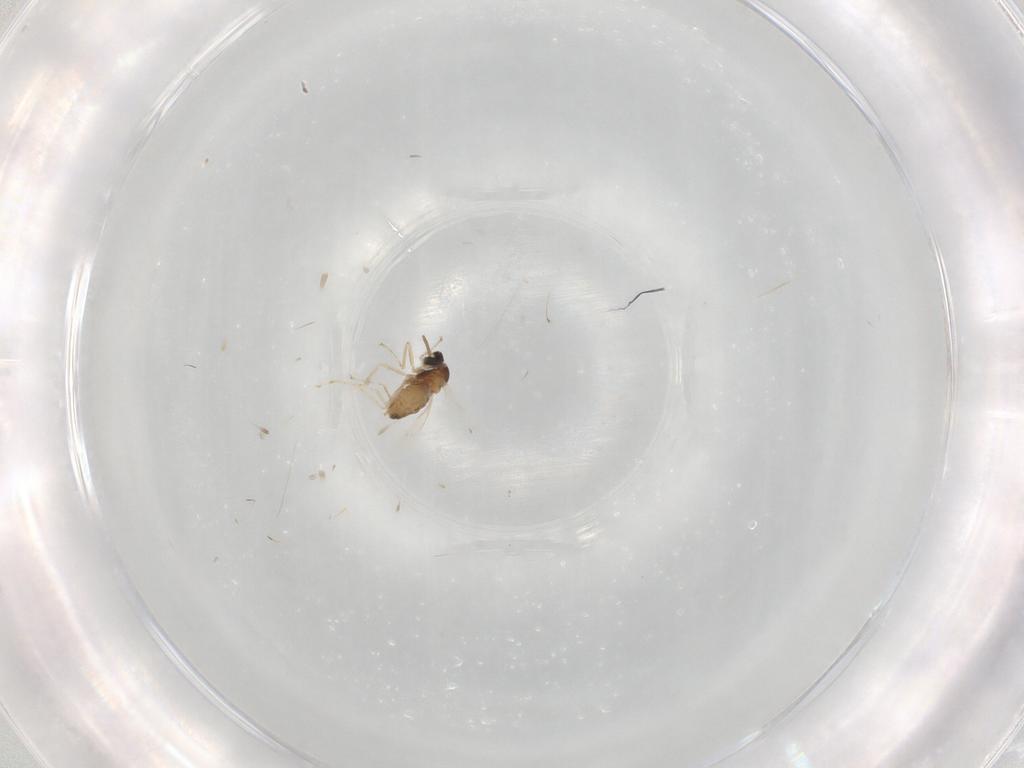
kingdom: Animalia
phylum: Arthropoda
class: Insecta
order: Diptera
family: Cecidomyiidae
